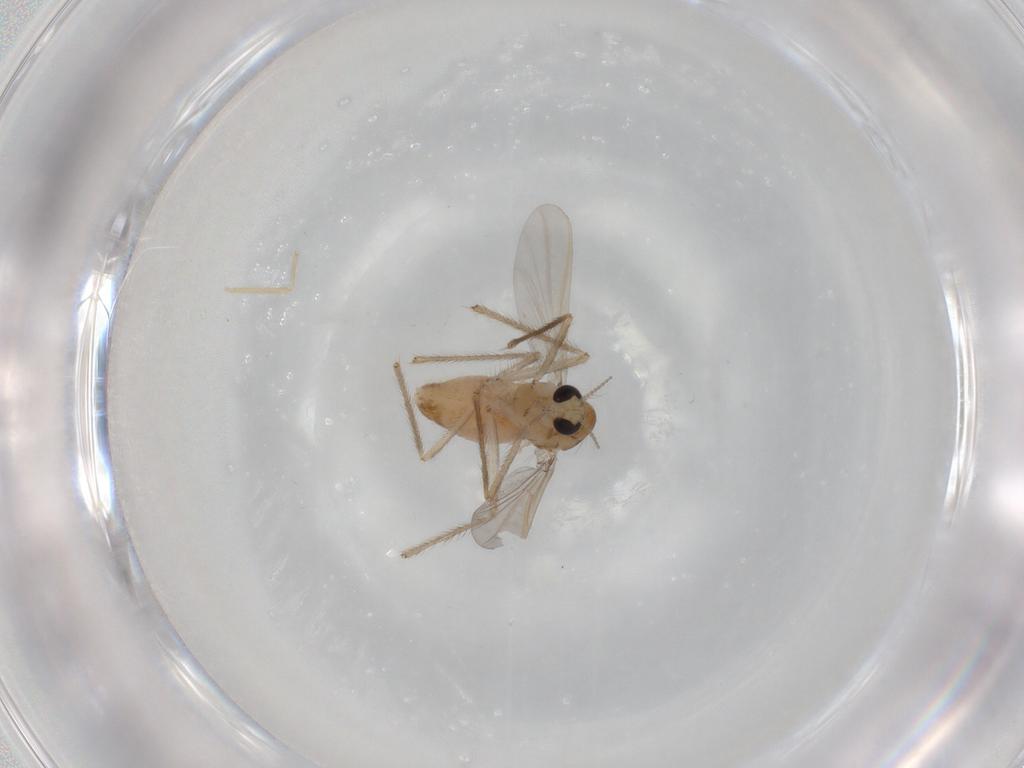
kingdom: Animalia
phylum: Arthropoda
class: Insecta
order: Diptera
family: Chironomidae
